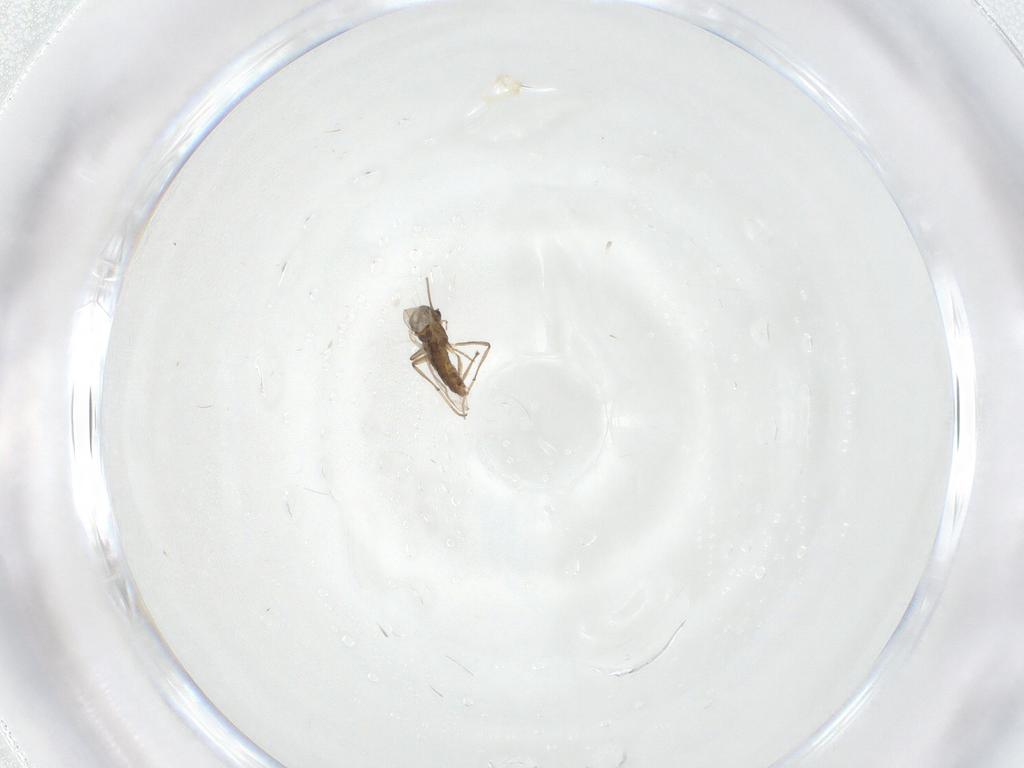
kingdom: Animalia
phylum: Arthropoda
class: Insecta
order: Diptera
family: Chironomidae
